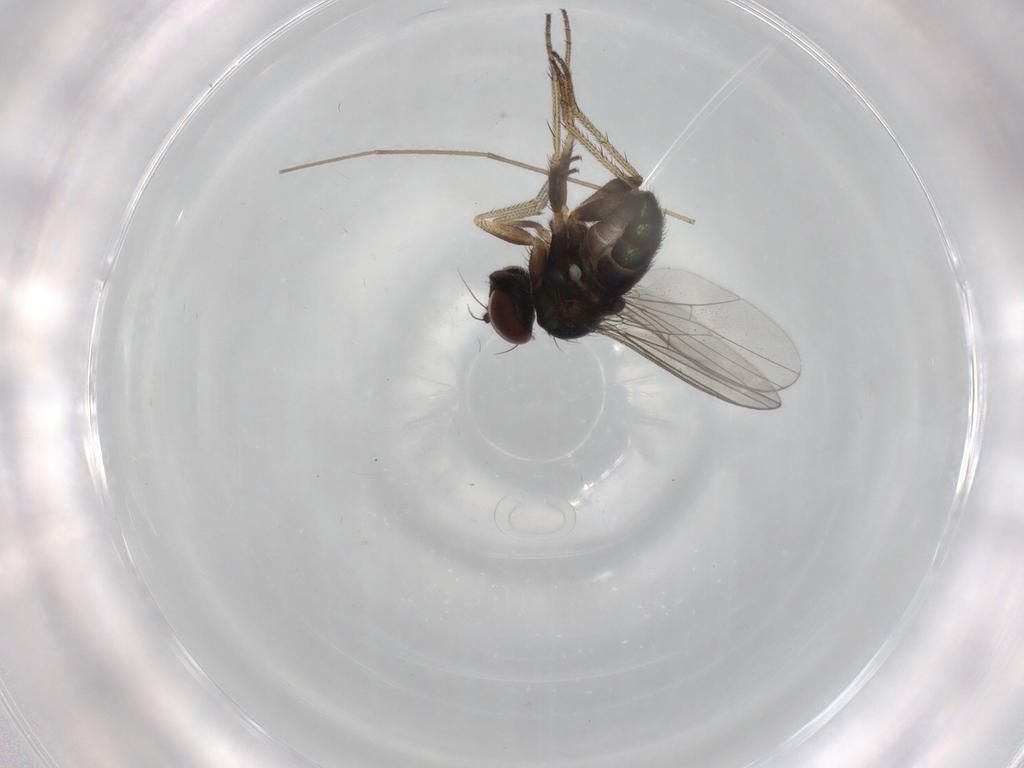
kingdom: Animalia
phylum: Arthropoda
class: Insecta
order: Diptera
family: Chironomidae
